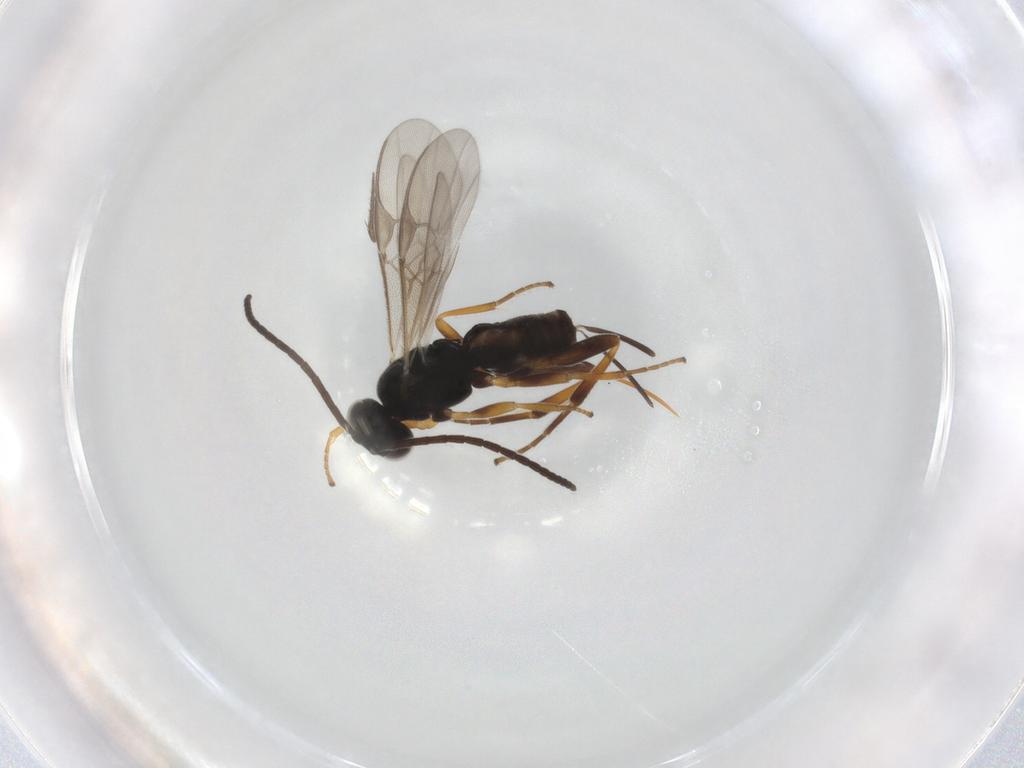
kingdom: Animalia
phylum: Arthropoda
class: Insecta
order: Hymenoptera
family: Braconidae
